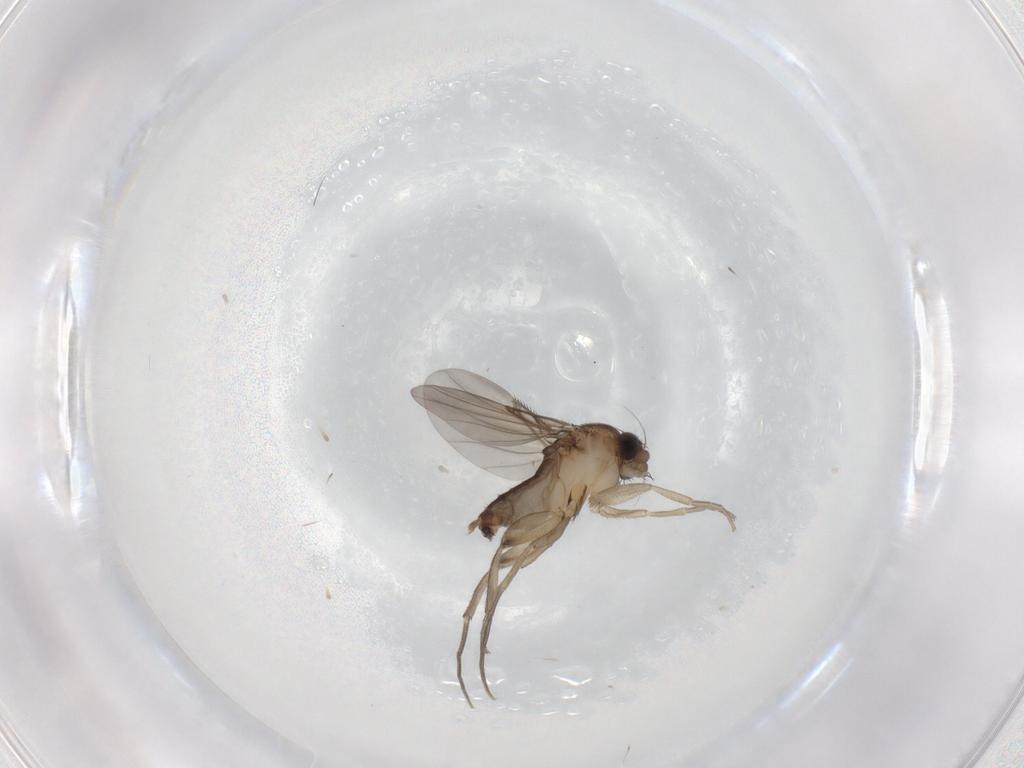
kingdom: Animalia
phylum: Arthropoda
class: Insecta
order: Diptera
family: Phoridae
